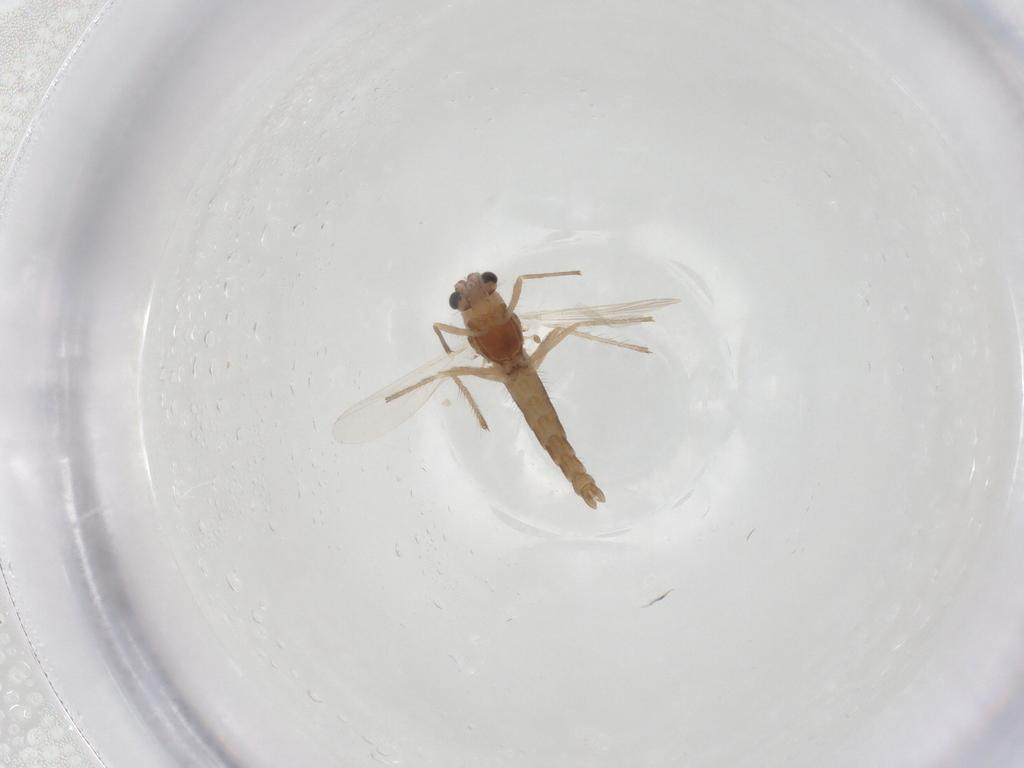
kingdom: Animalia
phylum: Arthropoda
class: Insecta
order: Diptera
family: Chironomidae
